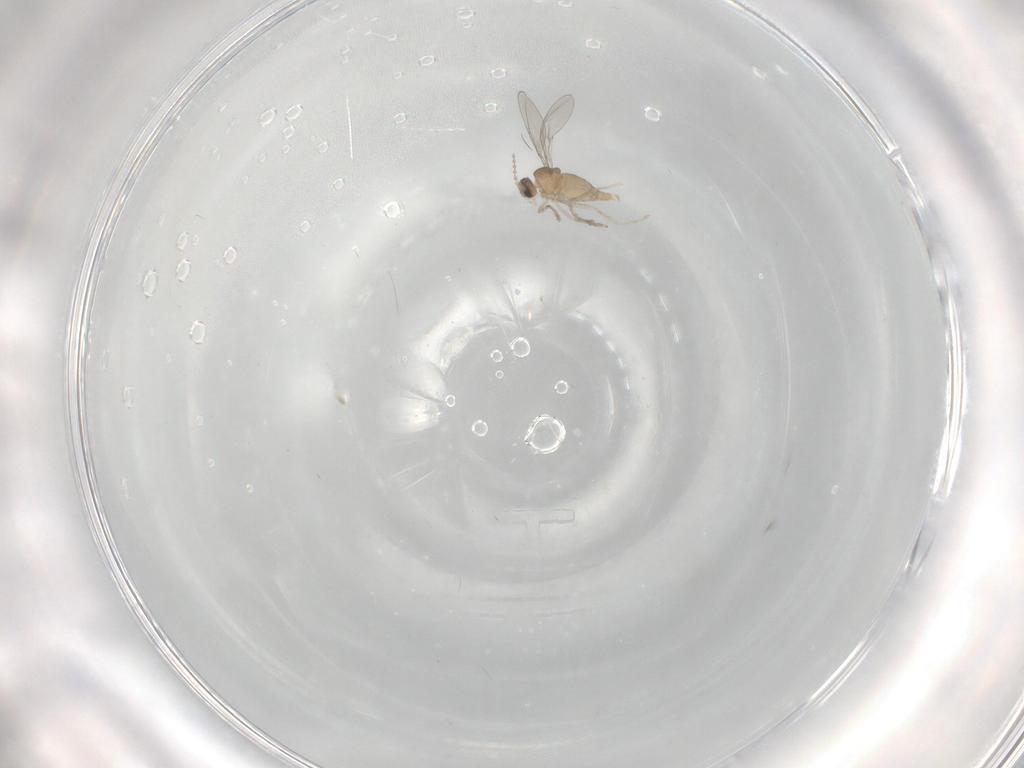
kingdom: Animalia
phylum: Arthropoda
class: Insecta
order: Diptera
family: Cecidomyiidae
